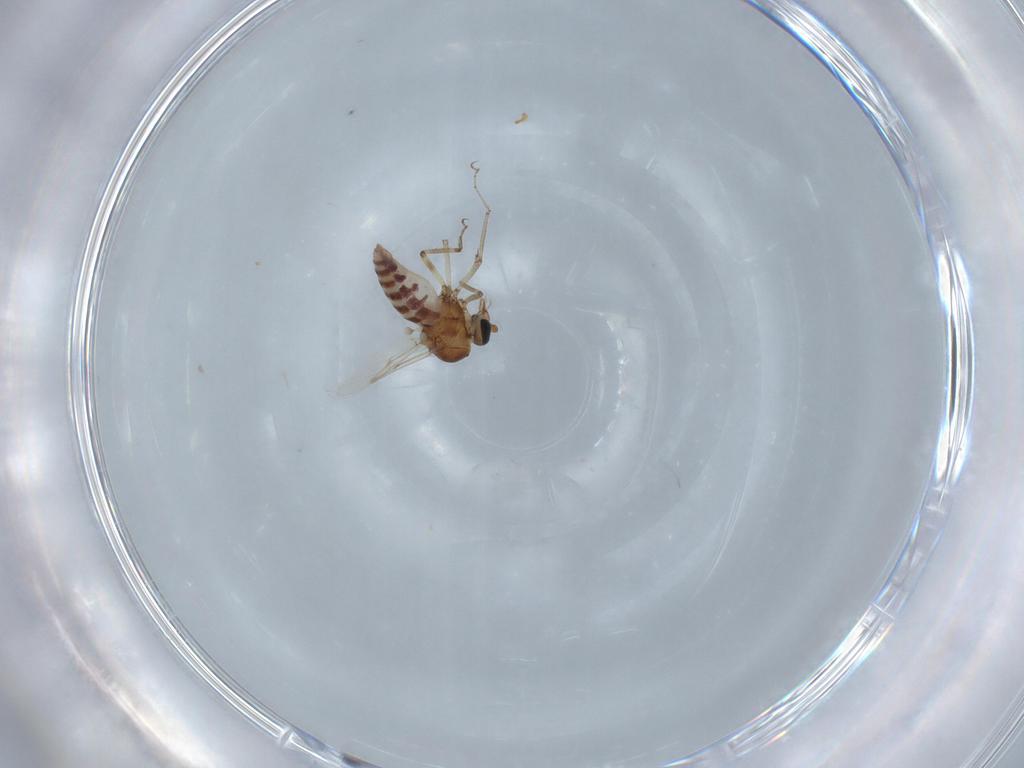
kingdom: Animalia
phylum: Arthropoda
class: Insecta
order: Diptera
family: Ceratopogonidae
